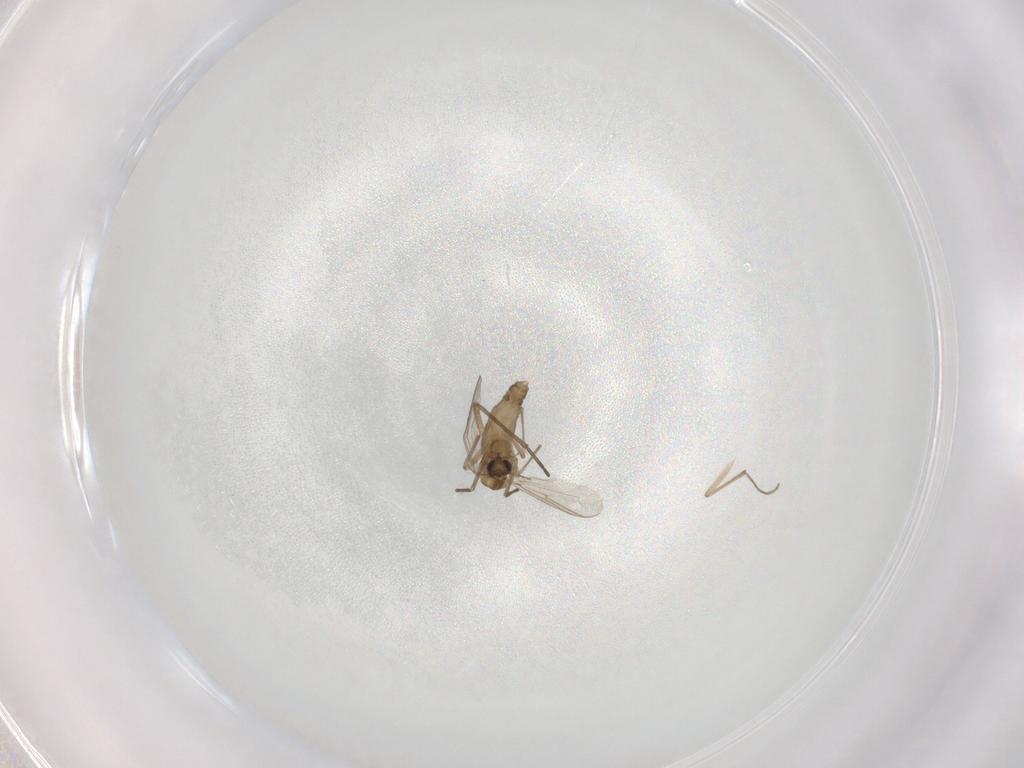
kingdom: Animalia
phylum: Arthropoda
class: Insecta
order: Diptera
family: Chironomidae
